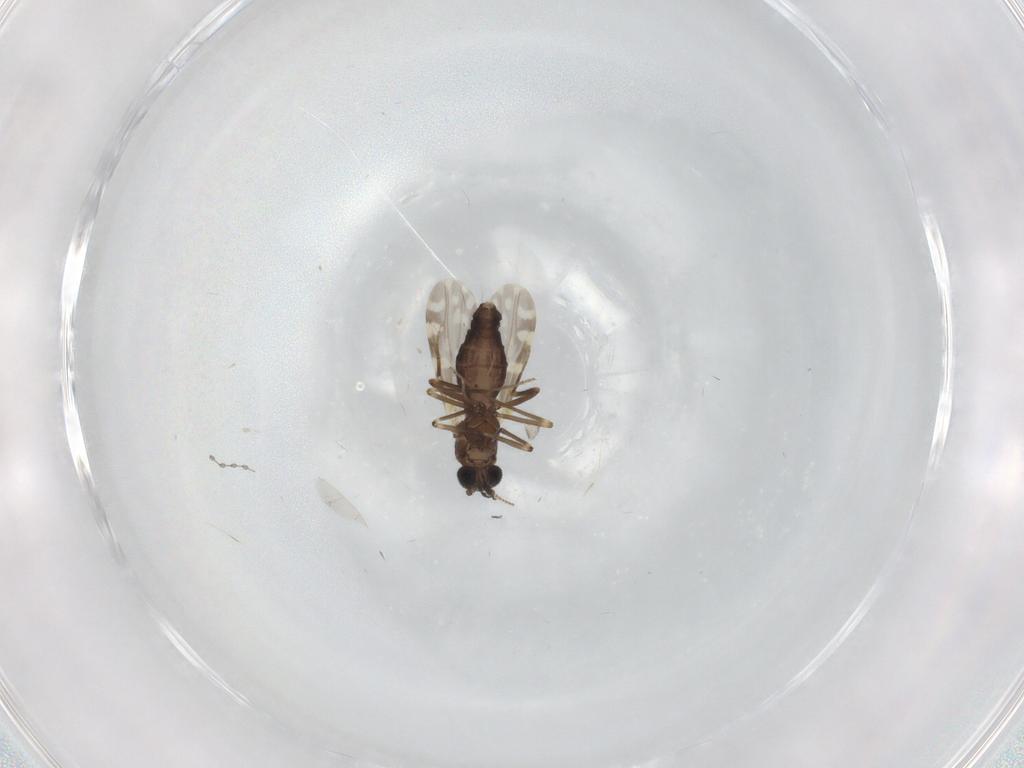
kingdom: Animalia
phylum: Arthropoda
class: Insecta
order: Diptera
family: Ceratopogonidae
